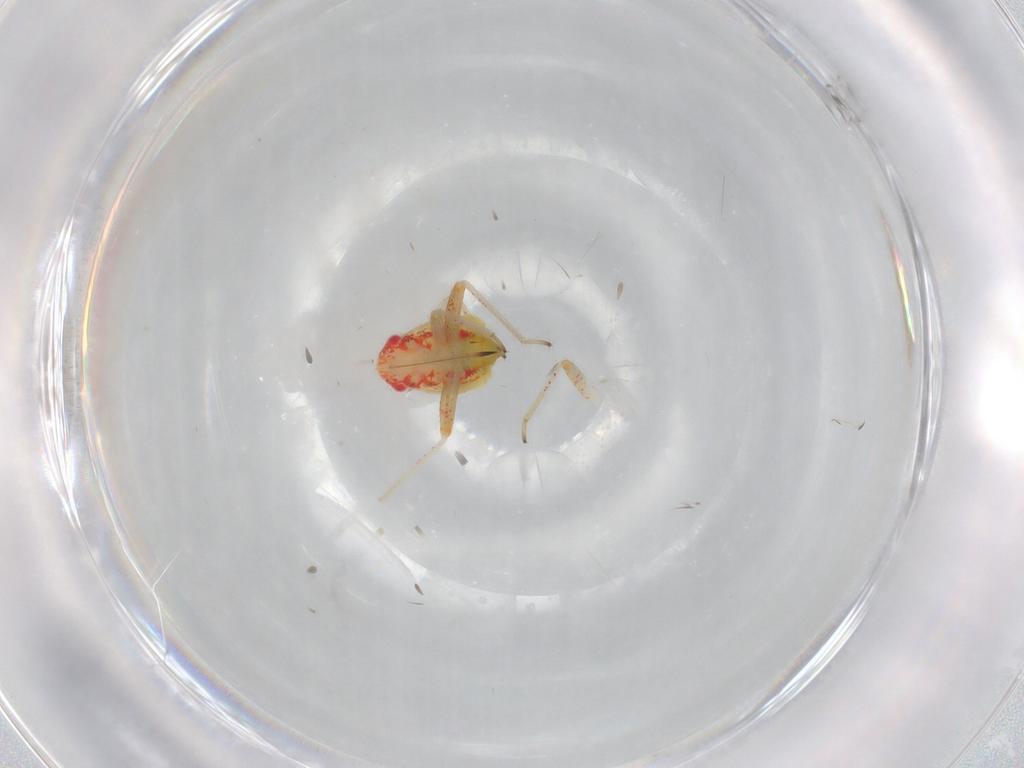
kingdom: Animalia
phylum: Arthropoda
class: Insecta
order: Hemiptera
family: Miridae
